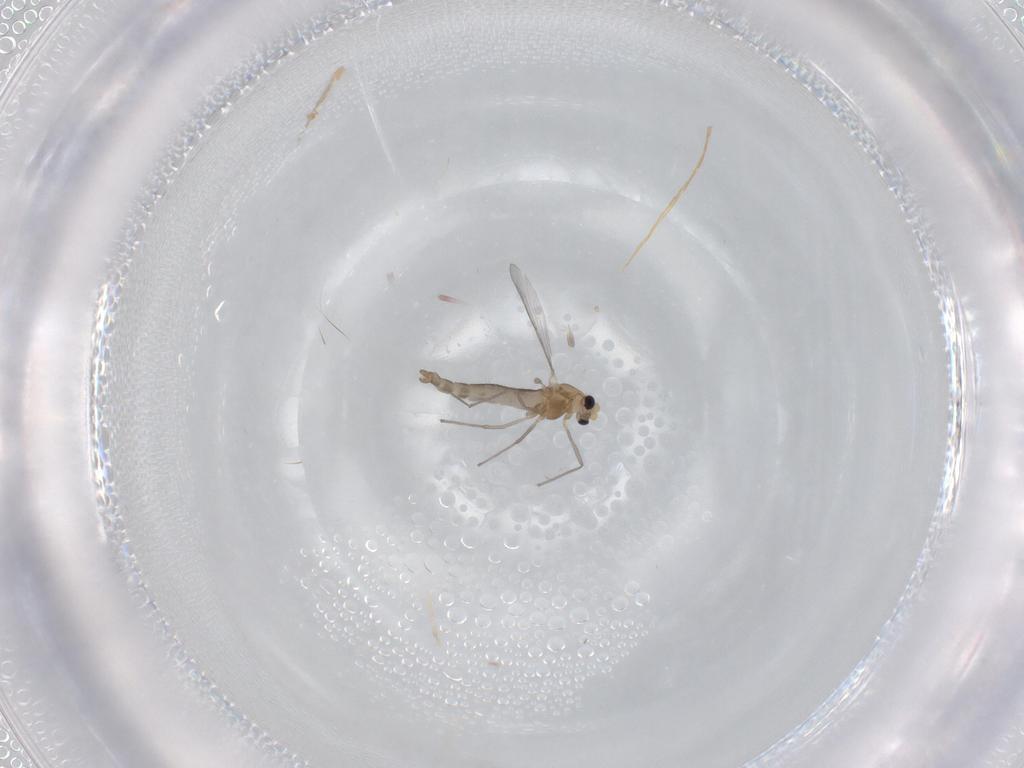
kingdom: Animalia
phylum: Arthropoda
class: Insecta
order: Diptera
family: Chironomidae
